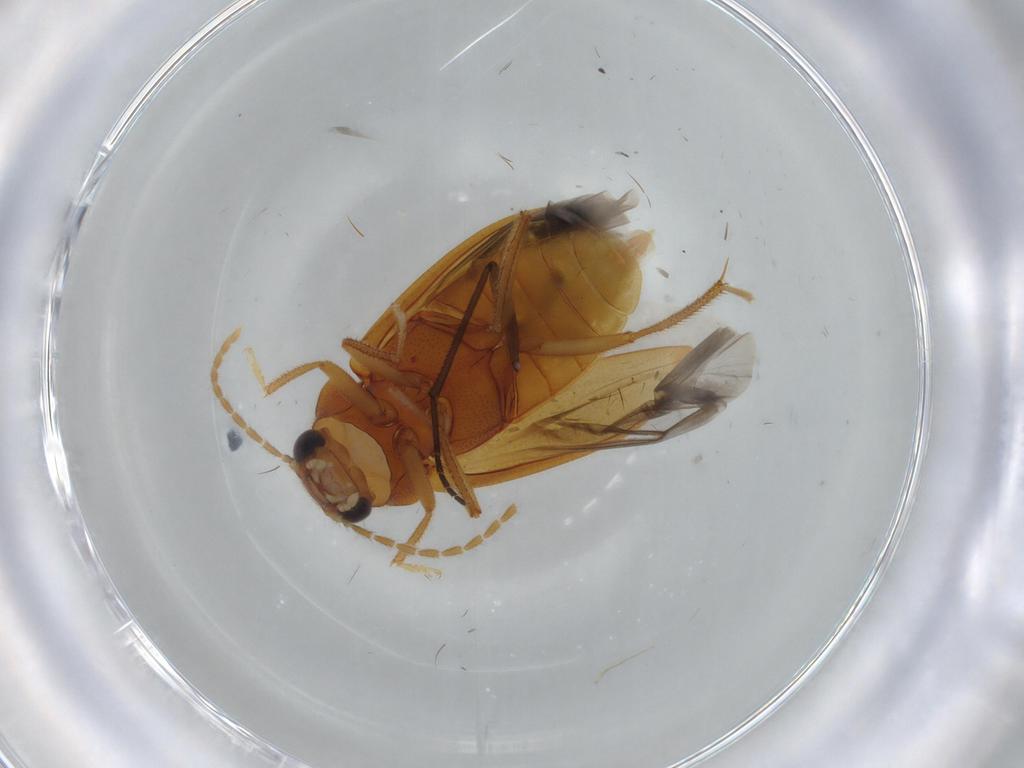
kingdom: Animalia
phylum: Arthropoda
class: Insecta
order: Coleoptera
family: Ptilodactylidae
